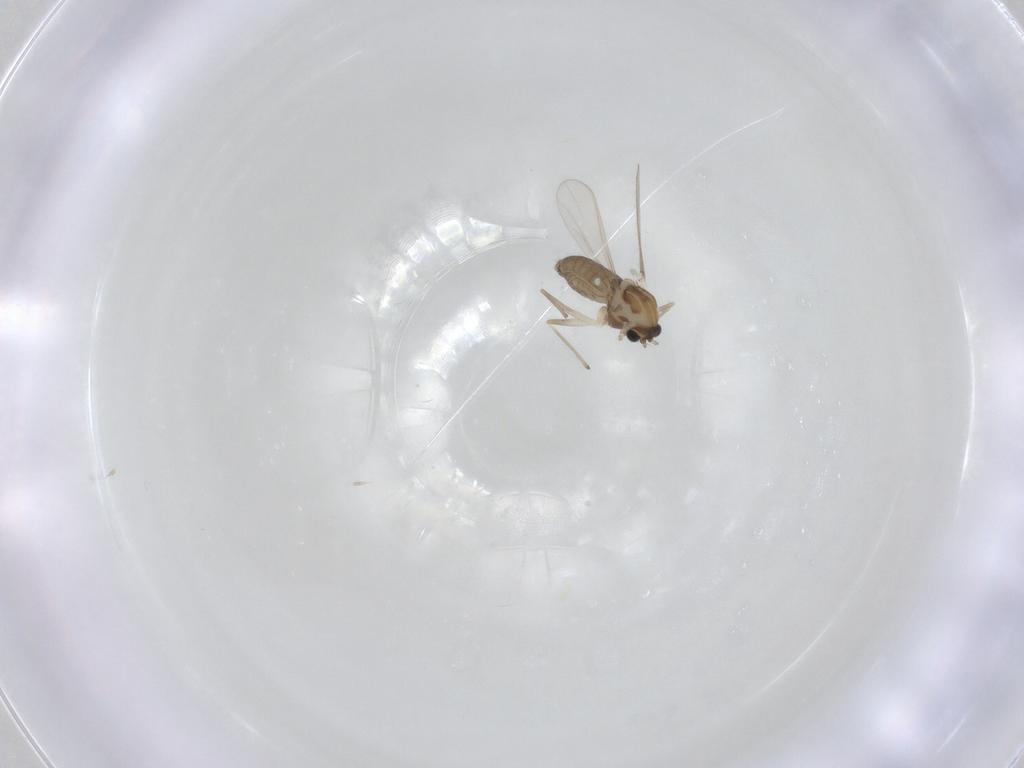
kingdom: Animalia
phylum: Arthropoda
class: Insecta
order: Diptera
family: Chironomidae
